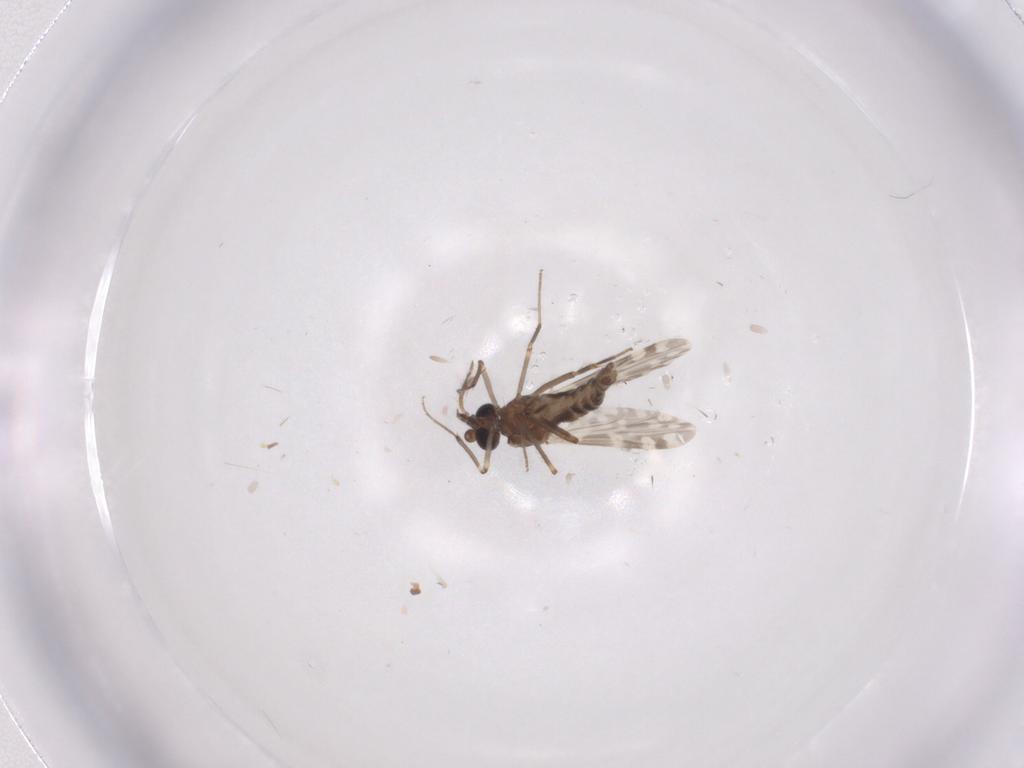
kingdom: Animalia
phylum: Arthropoda
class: Insecta
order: Diptera
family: Ceratopogonidae
